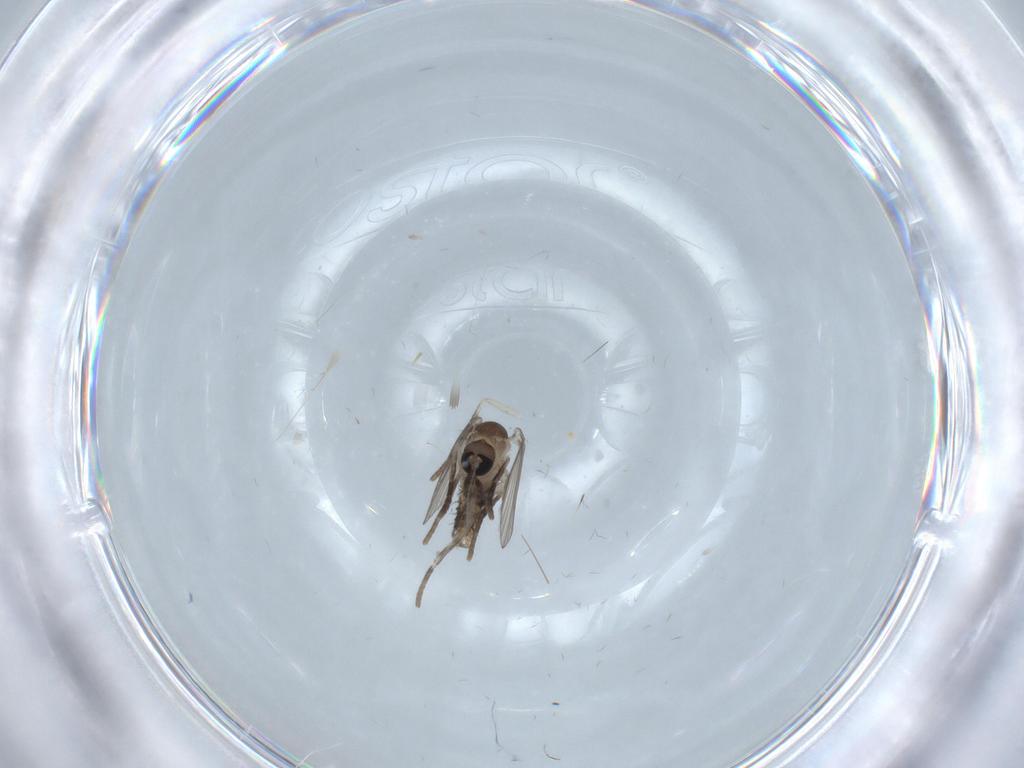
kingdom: Animalia
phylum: Arthropoda
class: Insecta
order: Diptera
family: Psychodidae
